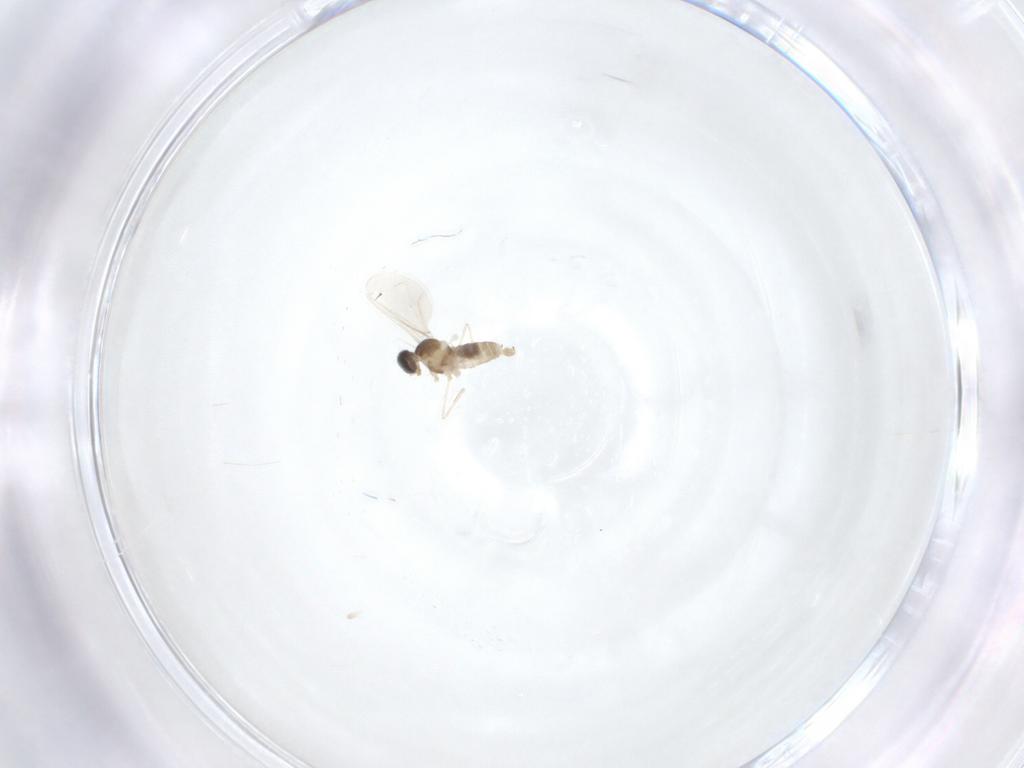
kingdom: Animalia
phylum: Arthropoda
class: Insecta
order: Diptera
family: Cecidomyiidae
